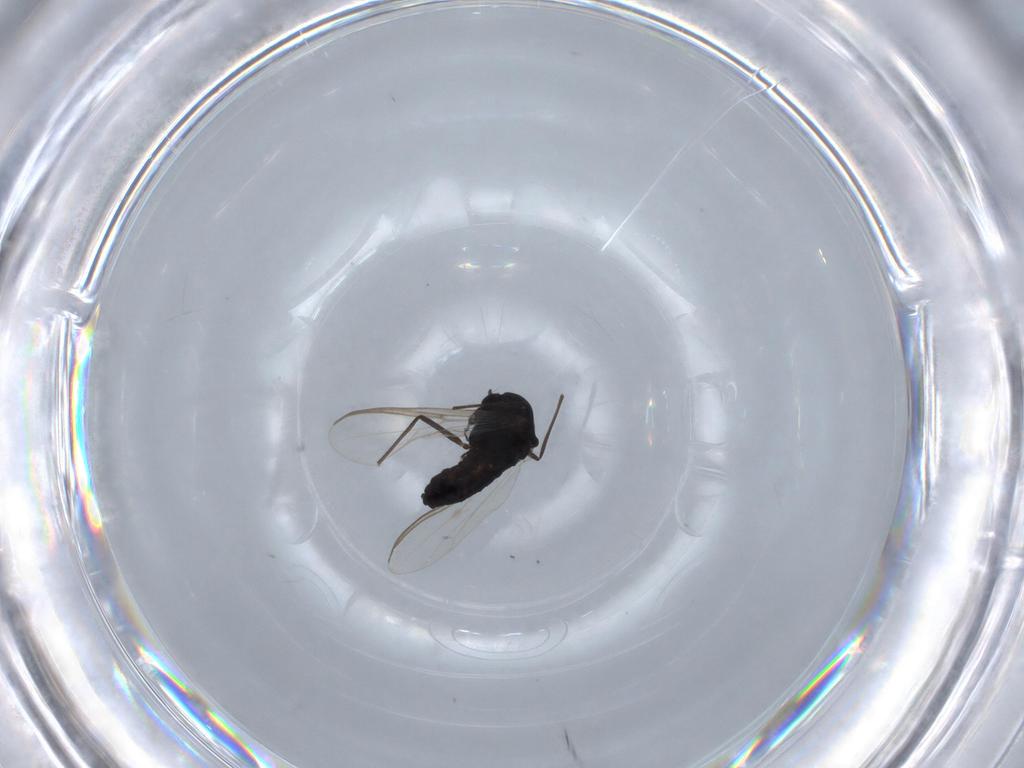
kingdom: Animalia
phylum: Arthropoda
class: Insecta
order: Diptera
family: Chironomidae
